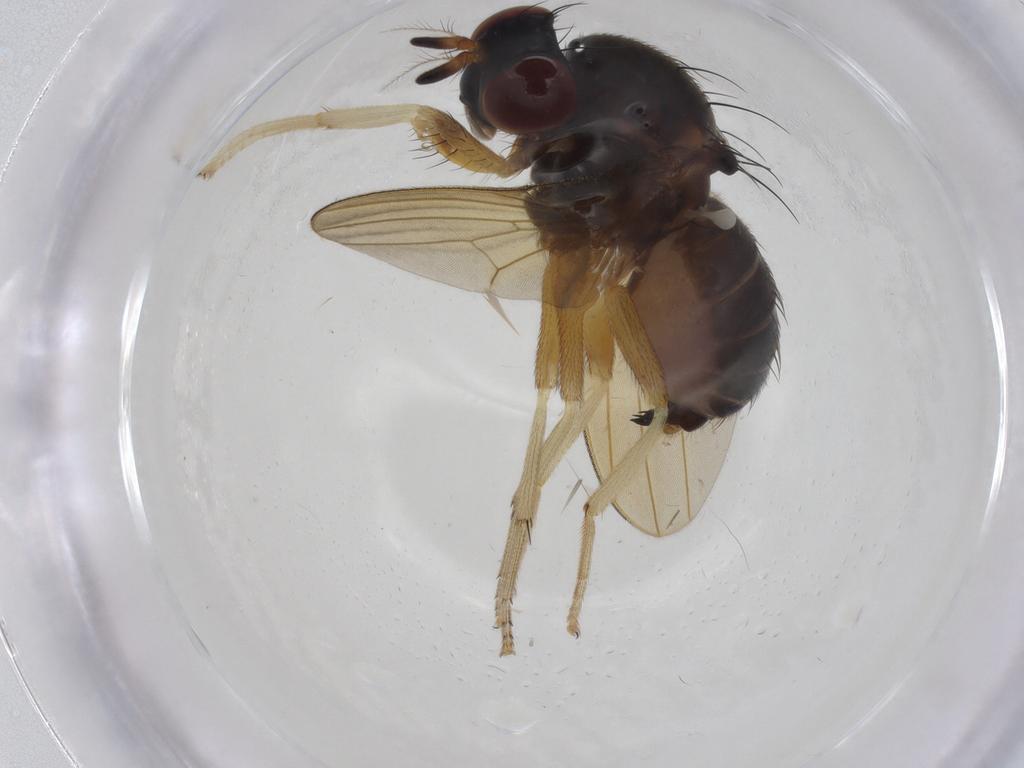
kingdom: Animalia
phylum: Arthropoda
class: Insecta
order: Diptera
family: Lauxaniidae
